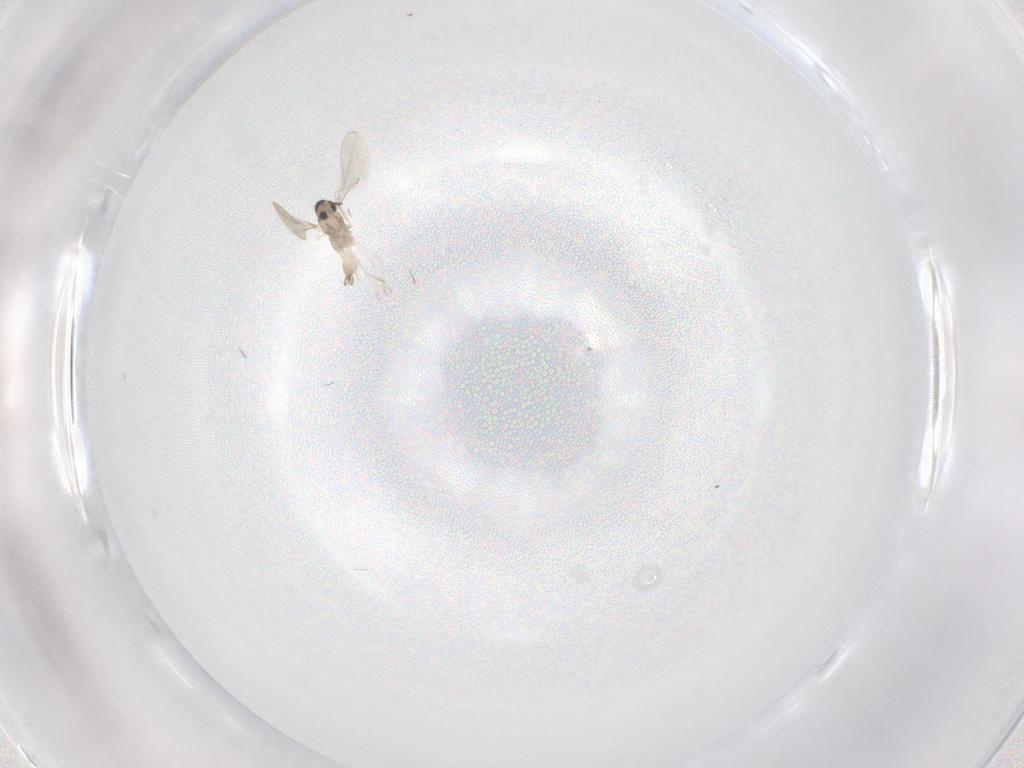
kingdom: Animalia
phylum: Arthropoda
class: Insecta
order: Diptera
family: Cecidomyiidae
